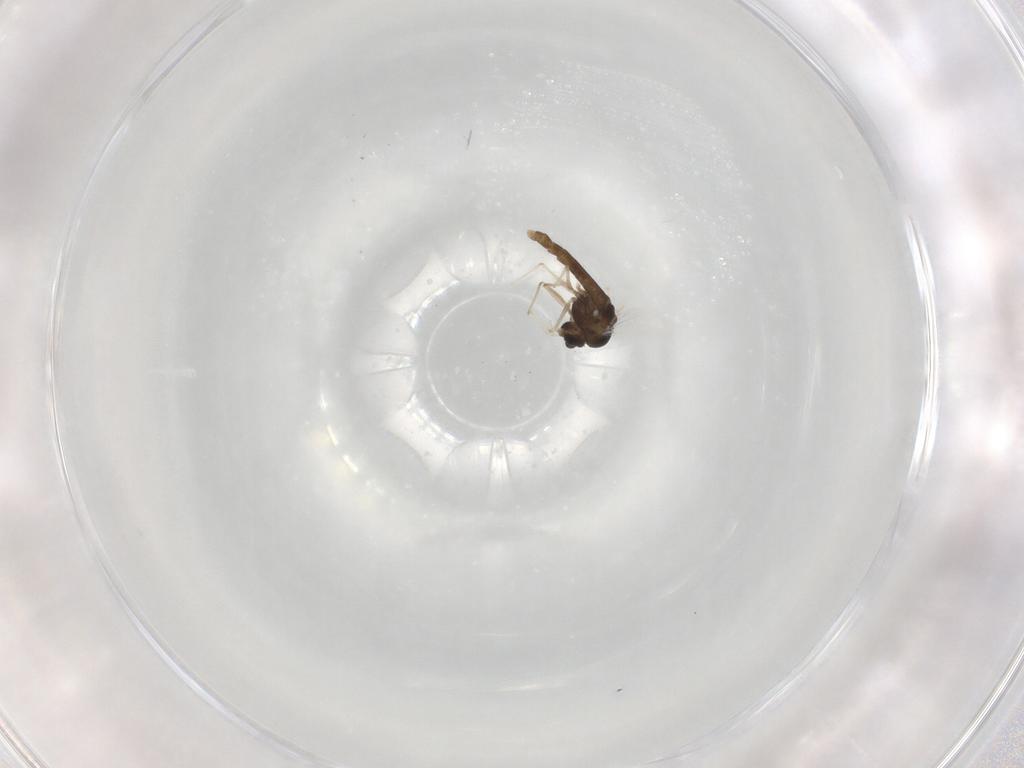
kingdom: Animalia
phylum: Arthropoda
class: Insecta
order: Diptera
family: Chironomidae
